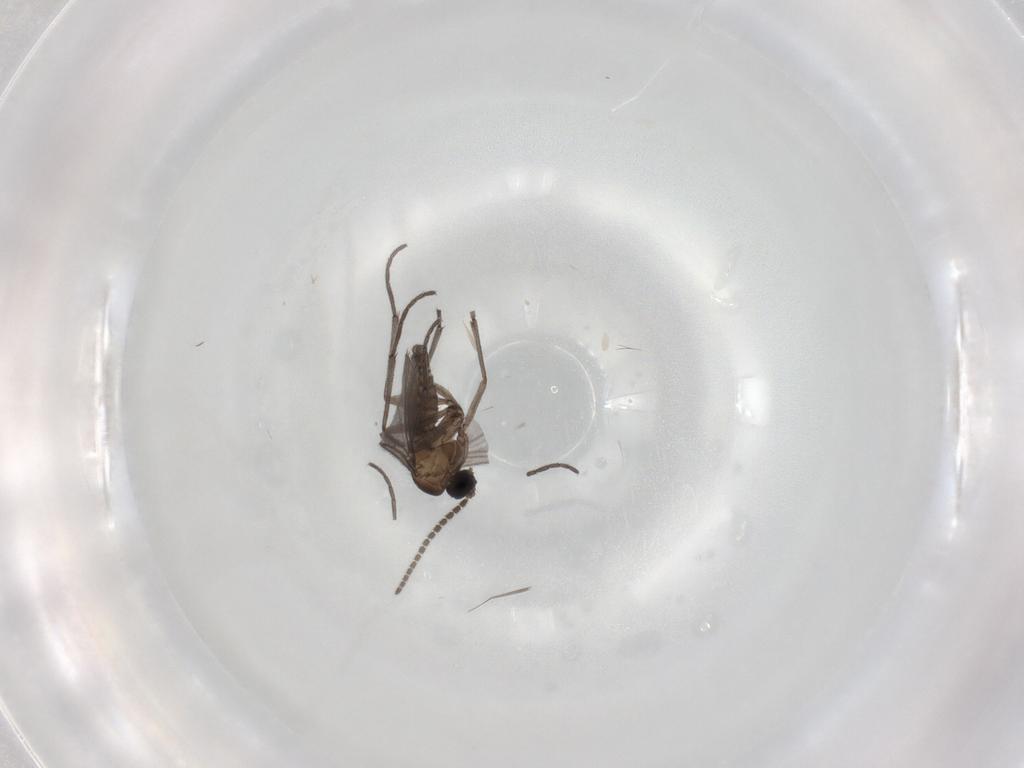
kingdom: Animalia
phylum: Arthropoda
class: Insecta
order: Diptera
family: Sciaridae
